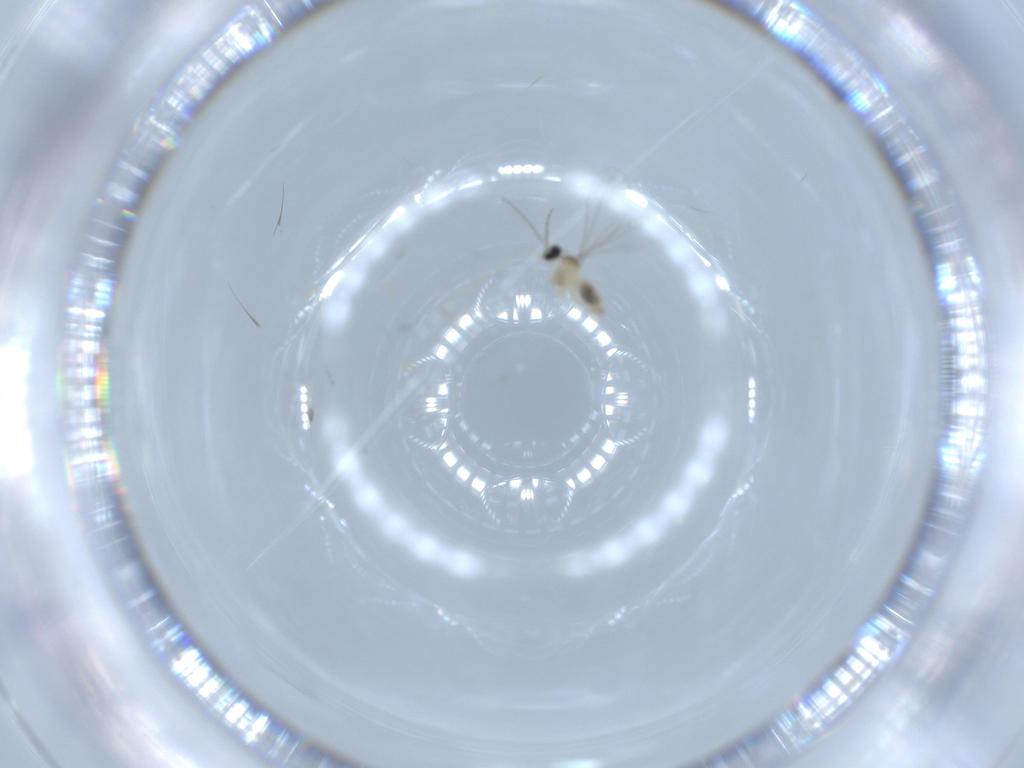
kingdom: Animalia
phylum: Arthropoda
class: Insecta
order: Diptera
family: Cecidomyiidae
